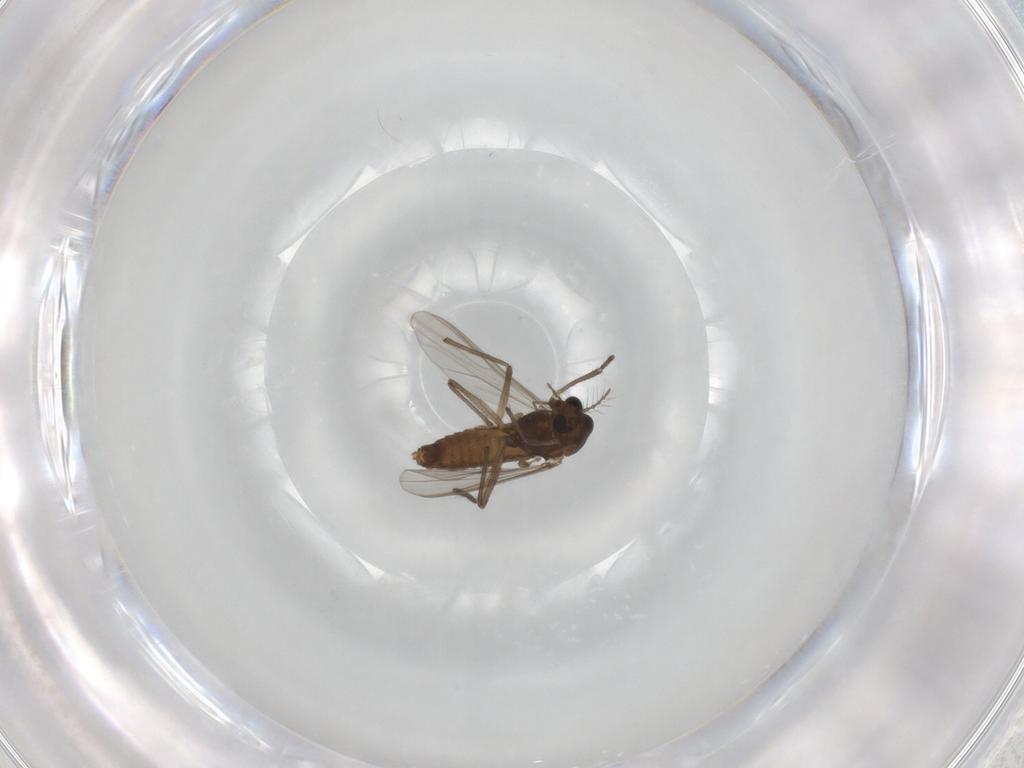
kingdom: Animalia
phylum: Arthropoda
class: Insecta
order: Diptera
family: Chironomidae
